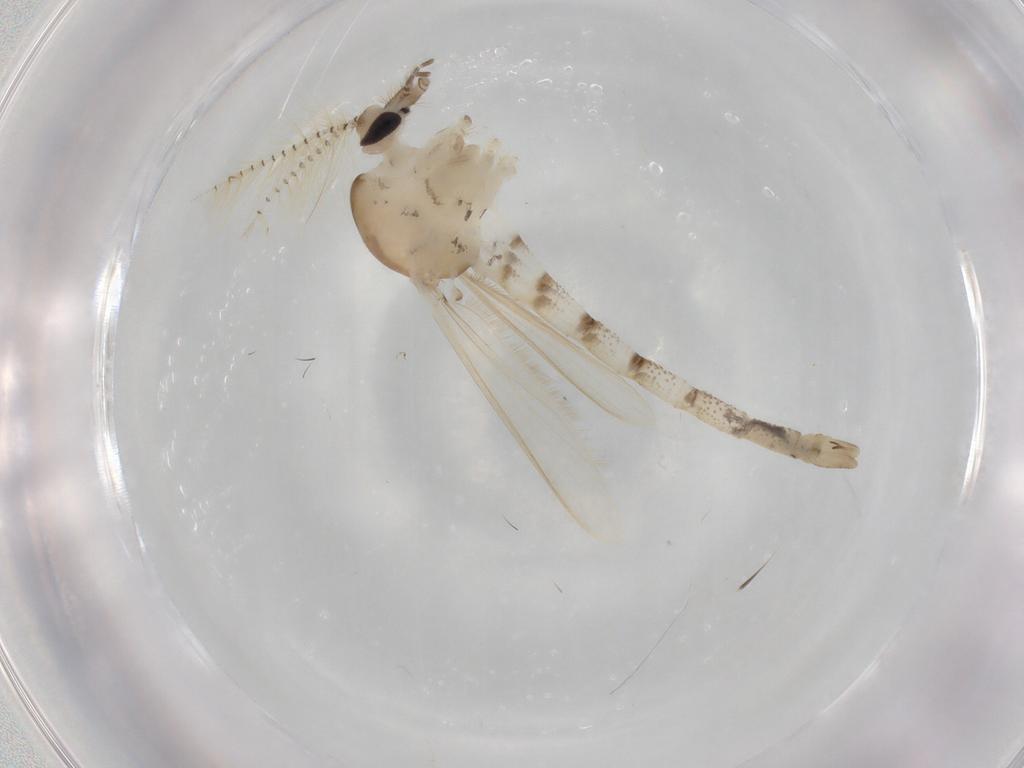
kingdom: Animalia
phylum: Arthropoda
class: Insecta
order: Diptera
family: Chaoboridae
